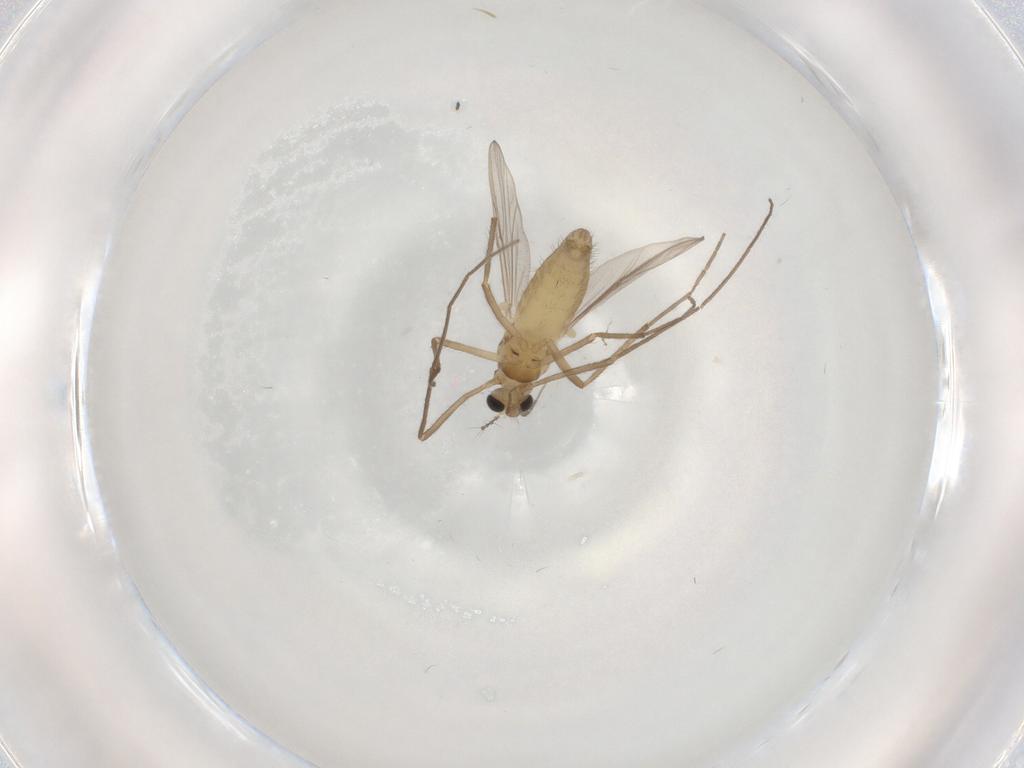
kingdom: Animalia
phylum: Arthropoda
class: Insecta
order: Diptera
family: Chironomidae
